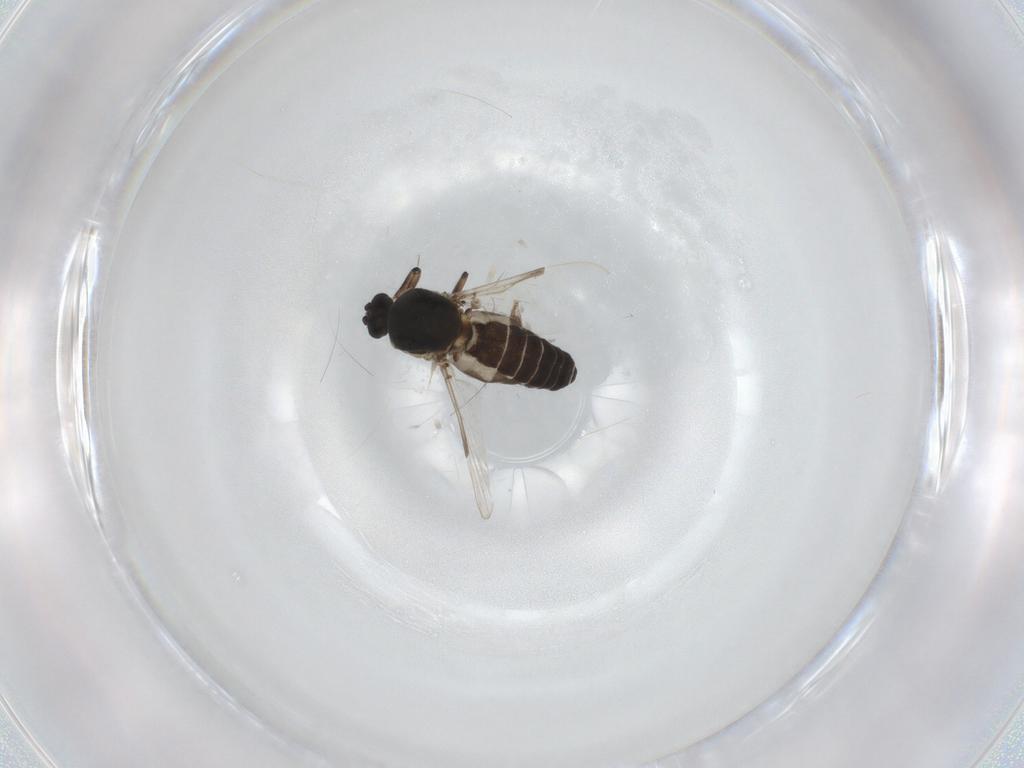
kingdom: Animalia
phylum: Arthropoda
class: Insecta
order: Diptera
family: Chironomidae
